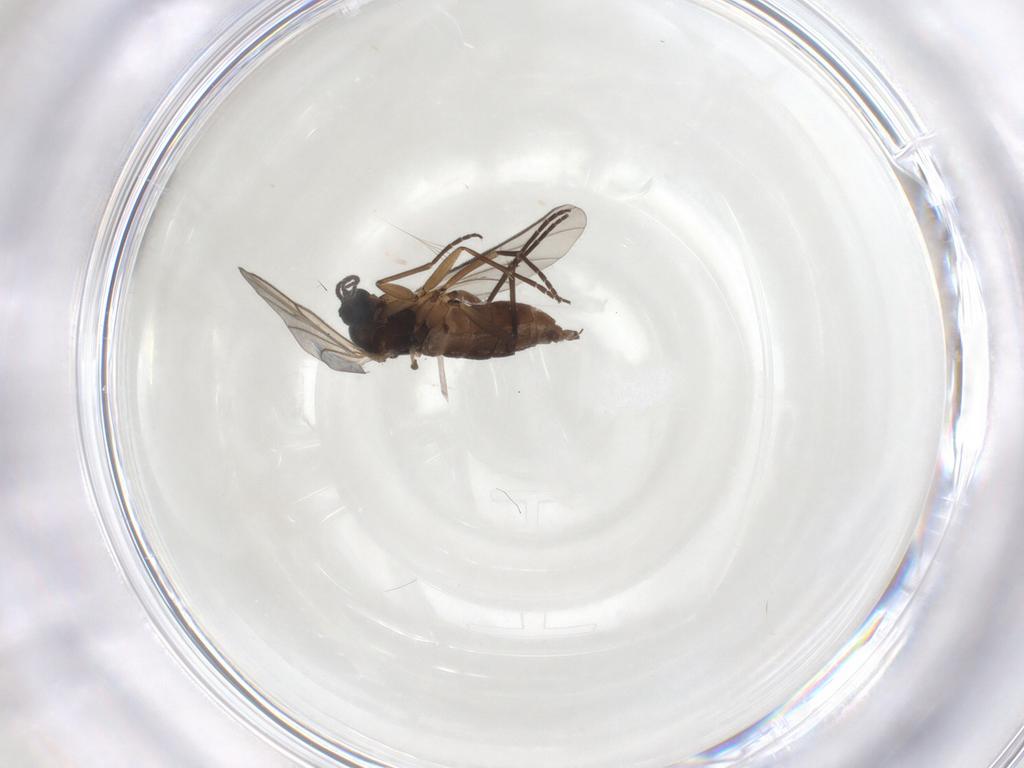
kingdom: Animalia
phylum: Arthropoda
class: Insecta
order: Diptera
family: Sciaridae
